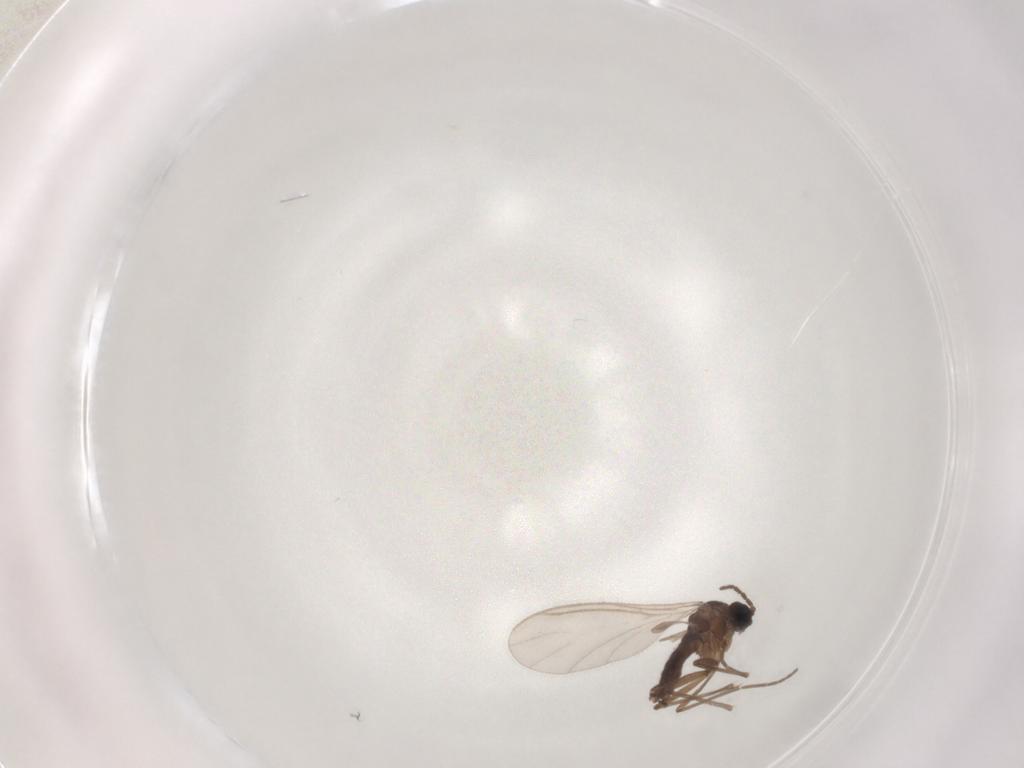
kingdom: Animalia
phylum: Arthropoda
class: Insecta
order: Diptera
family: Sciaridae
